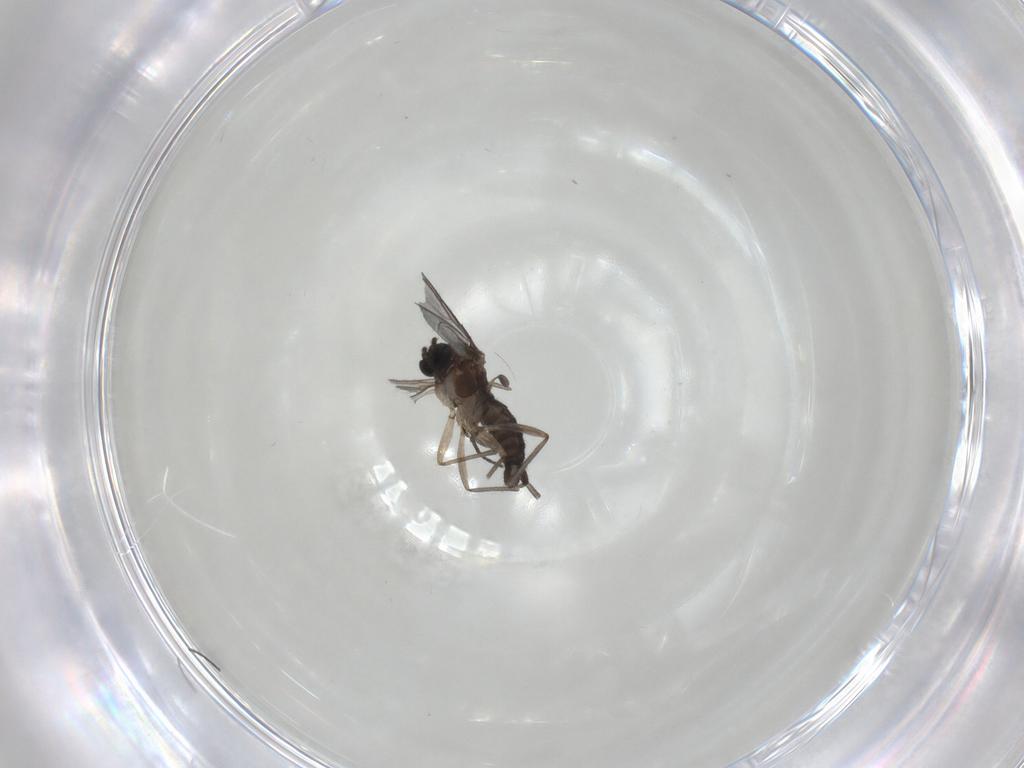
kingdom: Animalia
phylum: Arthropoda
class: Insecta
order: Diptera
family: Sciaridae
